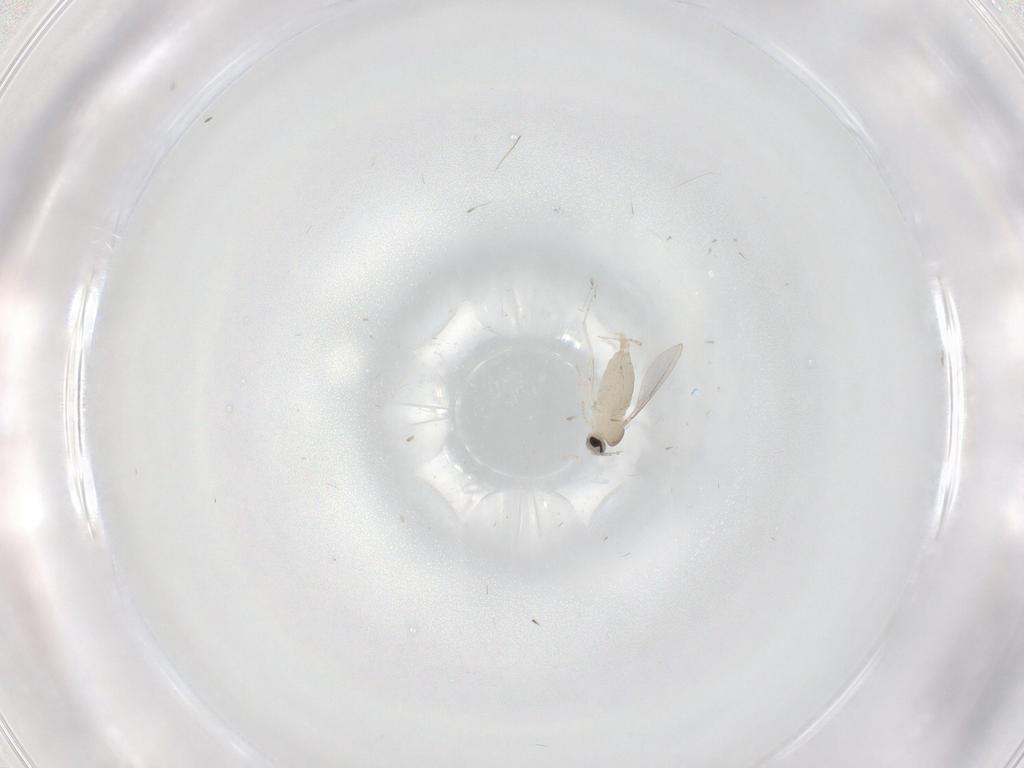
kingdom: Animalia
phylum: Arthropoda
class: Insecta
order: Diptera
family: Cecidomyiidae
